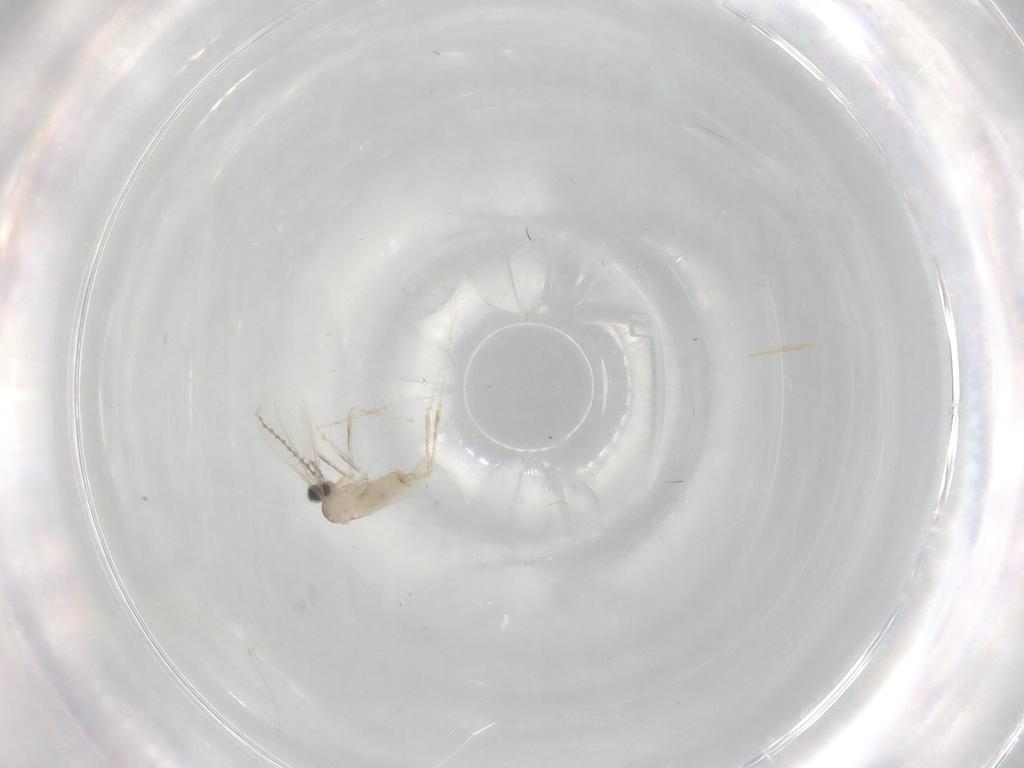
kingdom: Animalia
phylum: Arthropoda
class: Insecta
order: Diptera
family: Cecidomyiidae
